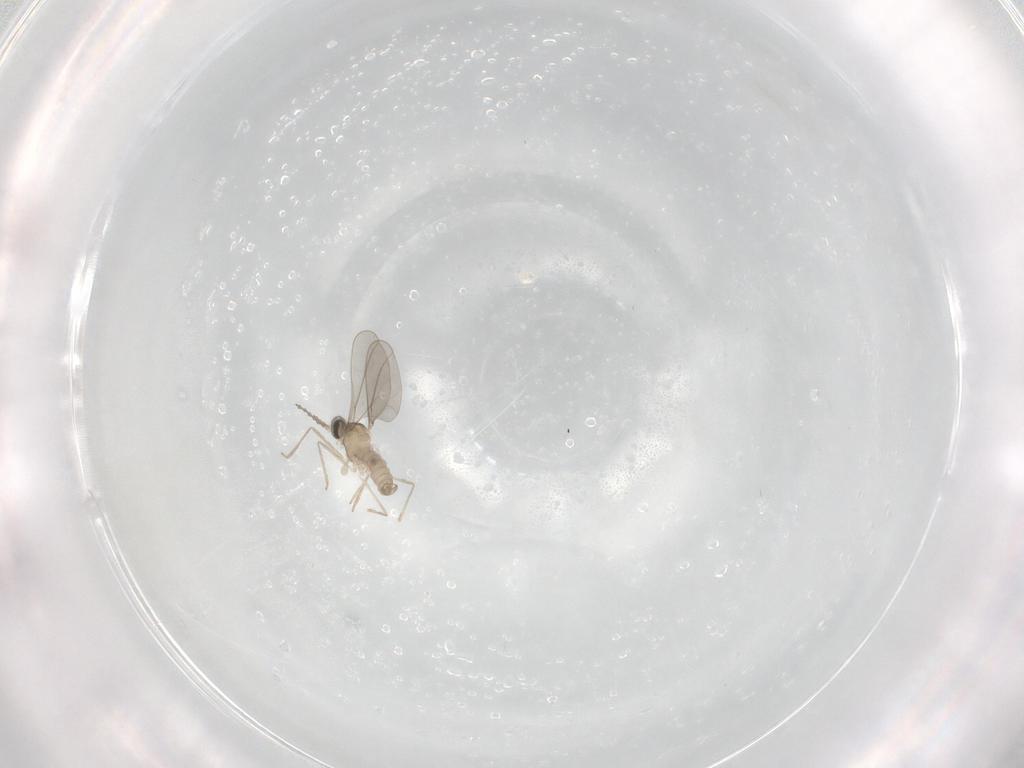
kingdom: Animalia
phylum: Arthropoda
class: Insecta
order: Diptera
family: Cecidomyiidae
